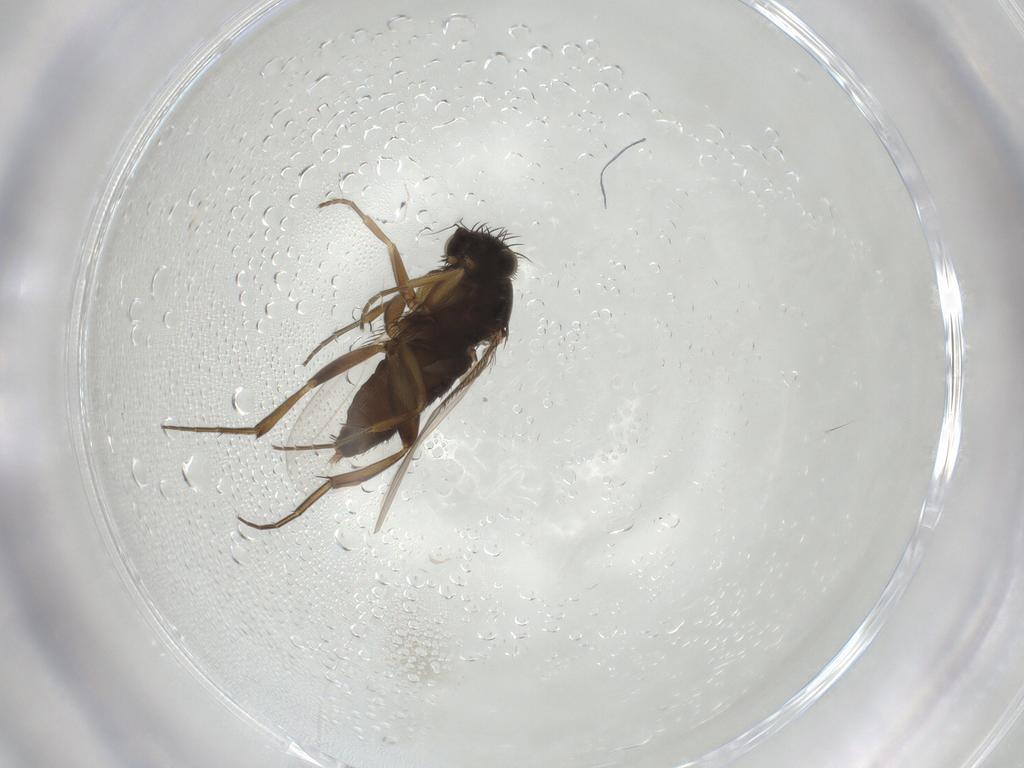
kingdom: Animalia
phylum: Arthropoda
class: Insecta
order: Diptera
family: Phoridae
